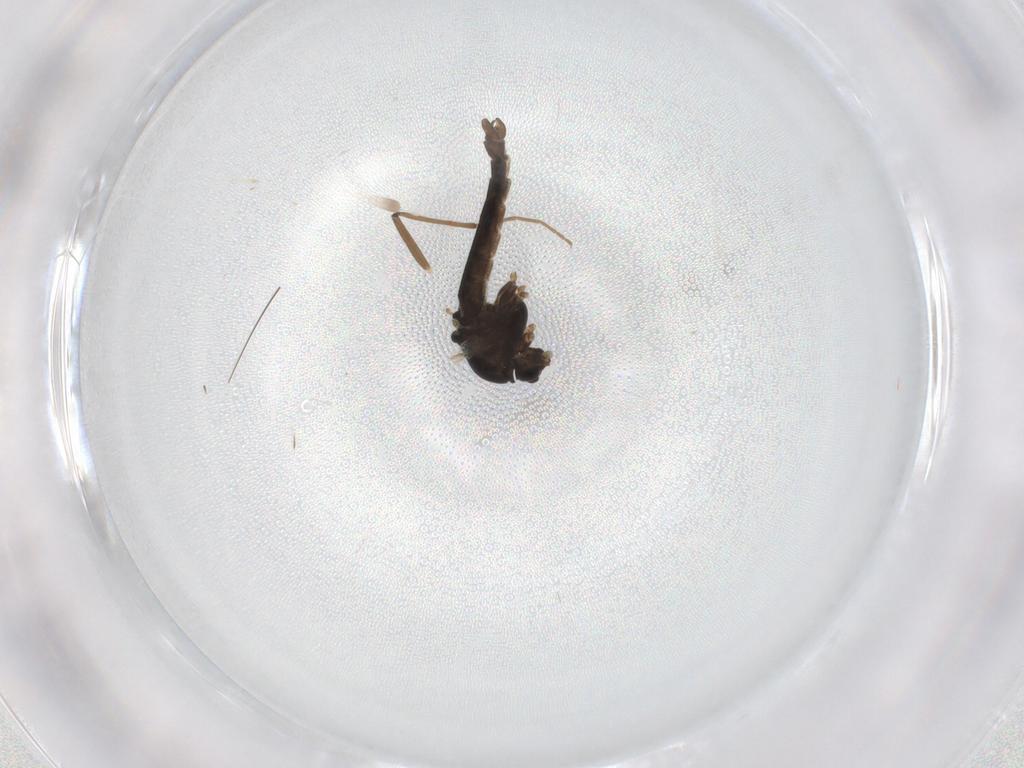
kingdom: Animalia
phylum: Arthropoda
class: Insecta
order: Diptera
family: Chironomidae
